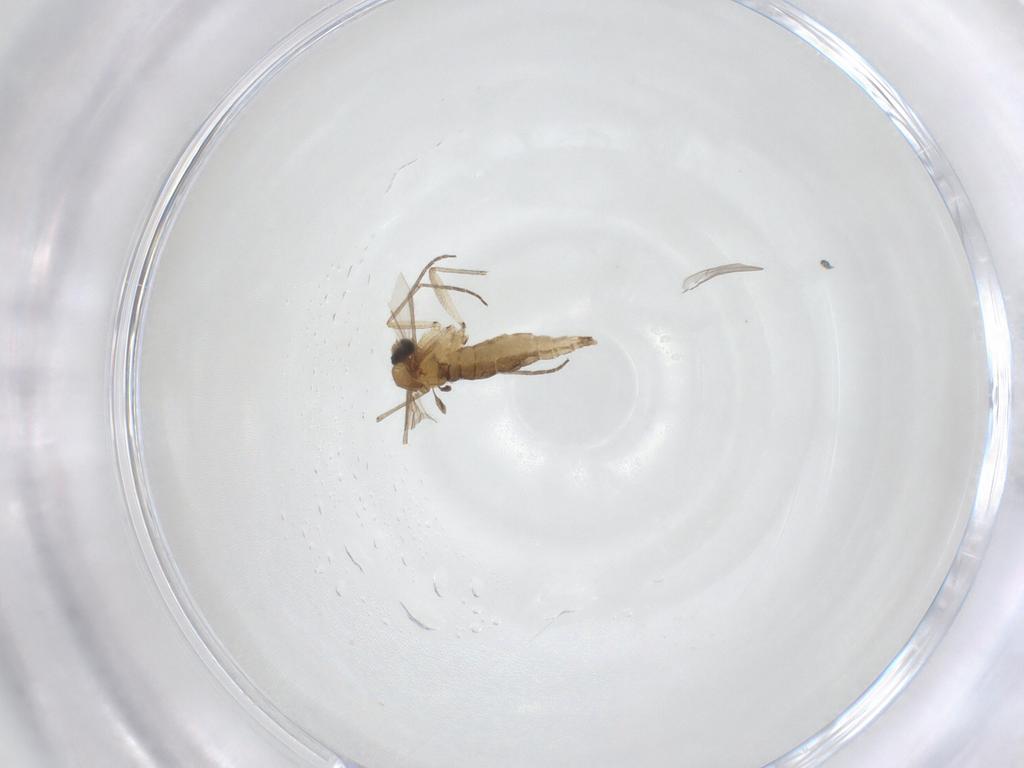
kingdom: Animalia
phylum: Arthropoda
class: Insecta
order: Diptera
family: Sciaridae
